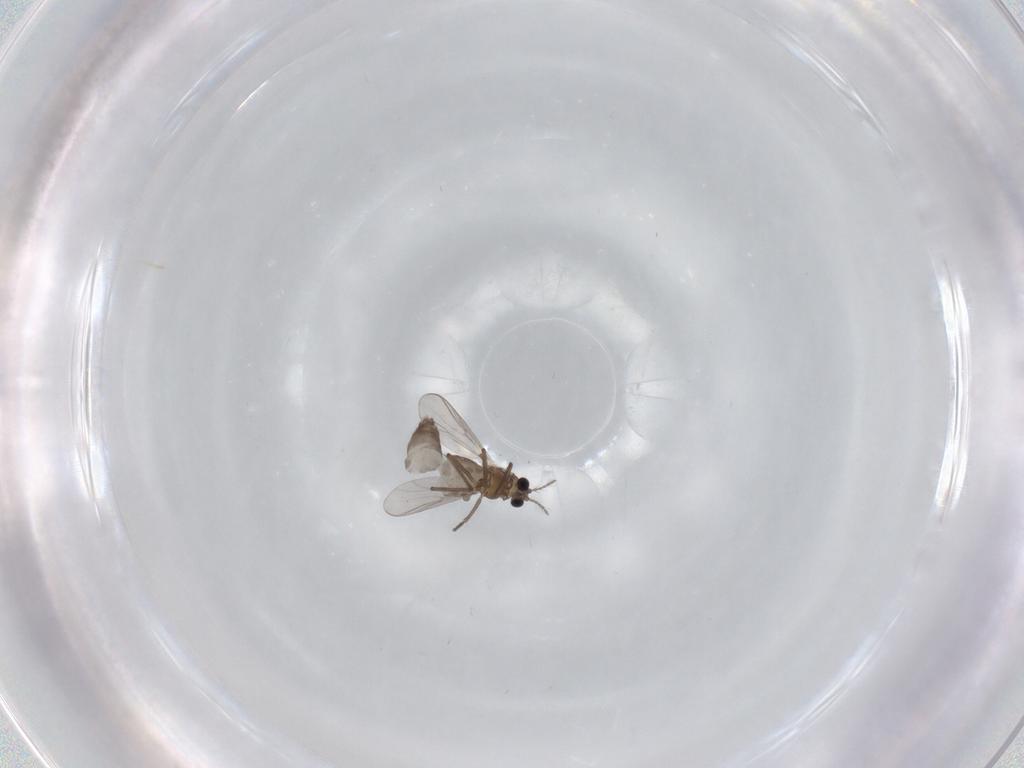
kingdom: Animalia
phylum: Arthropoda
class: Insecta
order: Diptera
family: Chironomidae
